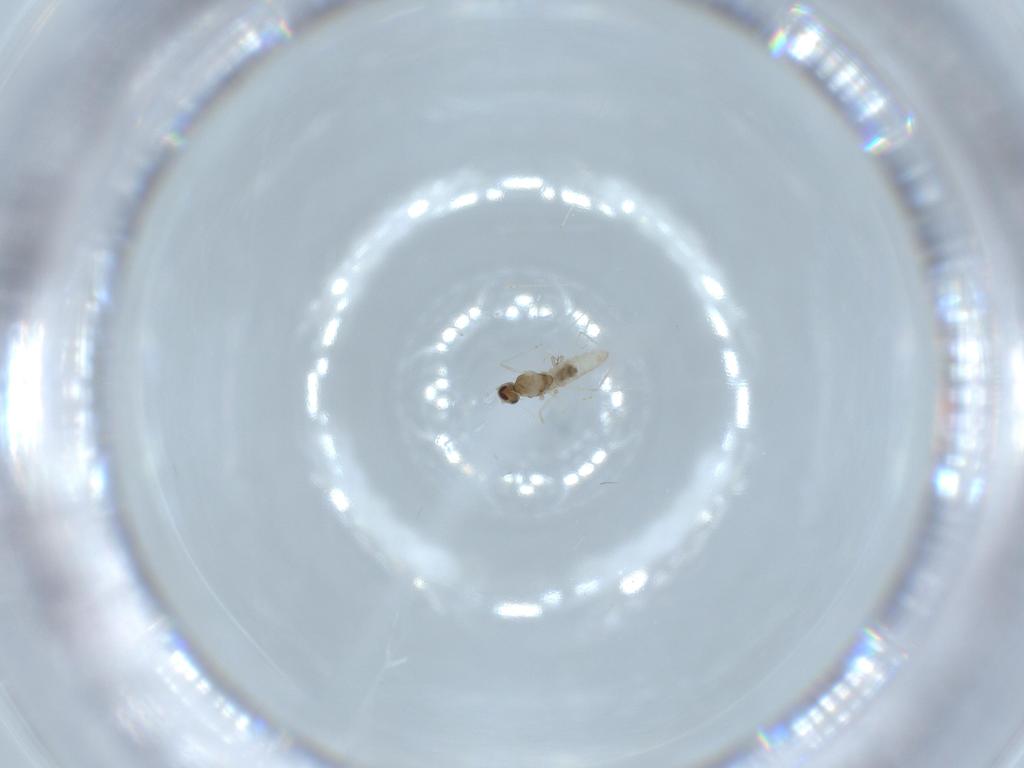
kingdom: Animalia
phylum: Arthropoda
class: Insecta
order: Diptera
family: Cecidomyiidae
